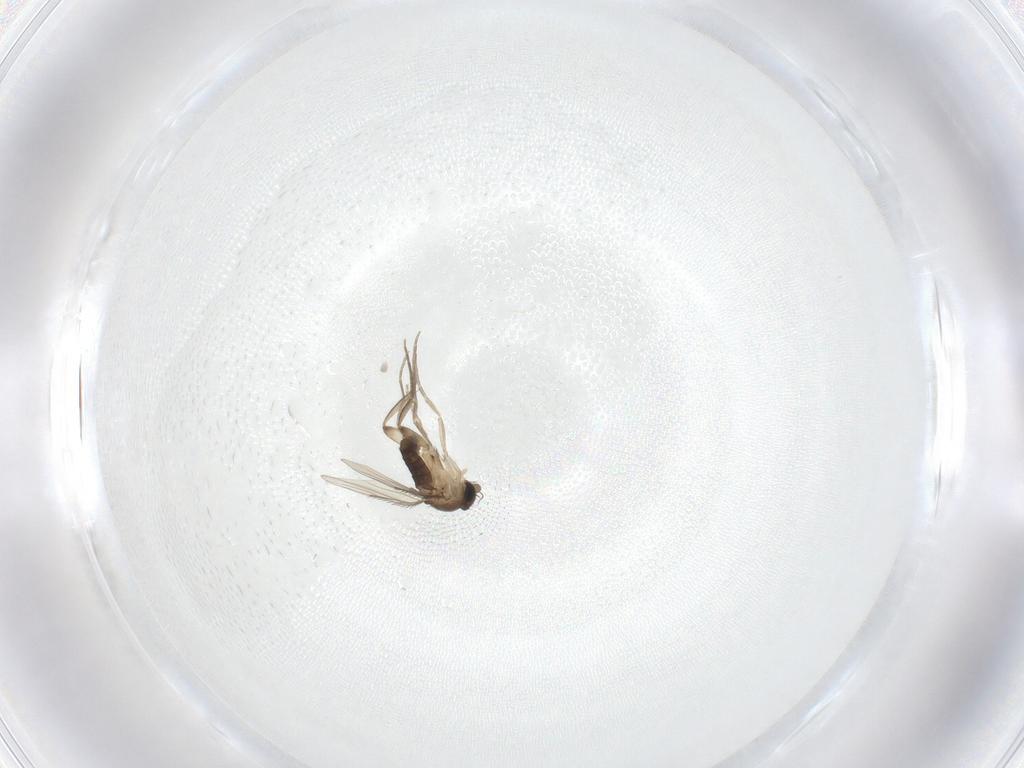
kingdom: Animalia
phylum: Arthropoda
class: Insecta
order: Diptera
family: Phoridae
